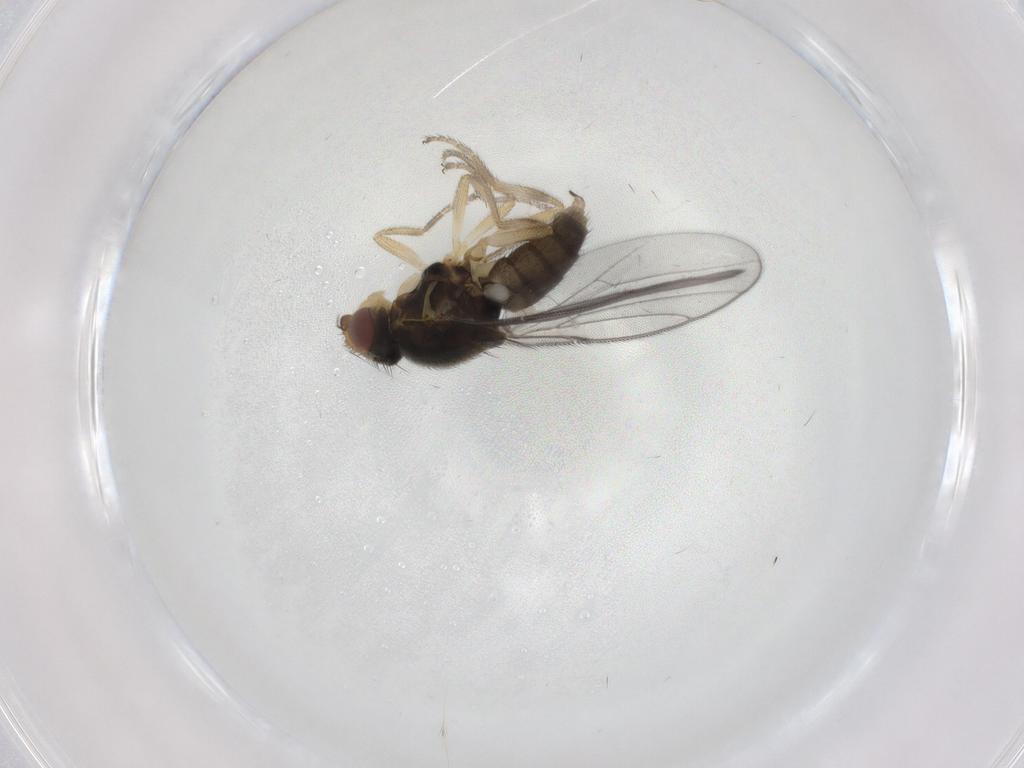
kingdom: Animalia
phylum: Arthropoda
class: Insecta
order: Diptera
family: Chloropidae
